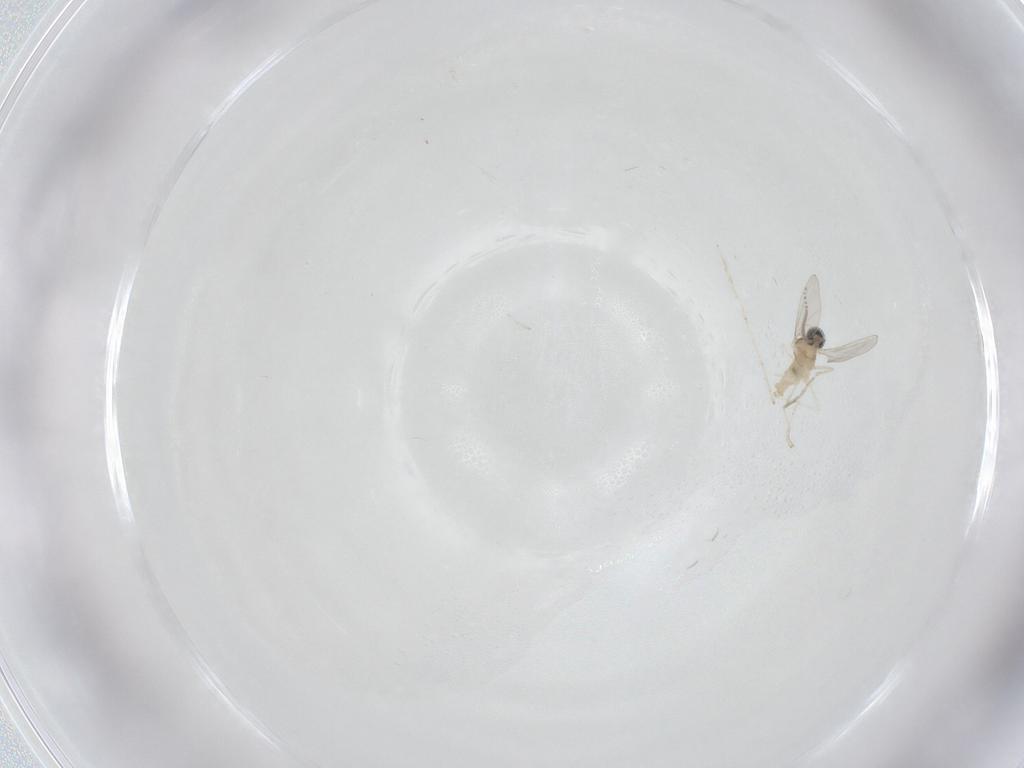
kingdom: Animalia
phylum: Arthropoda
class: Insecta
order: Diptera
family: Cecidomyiidae
